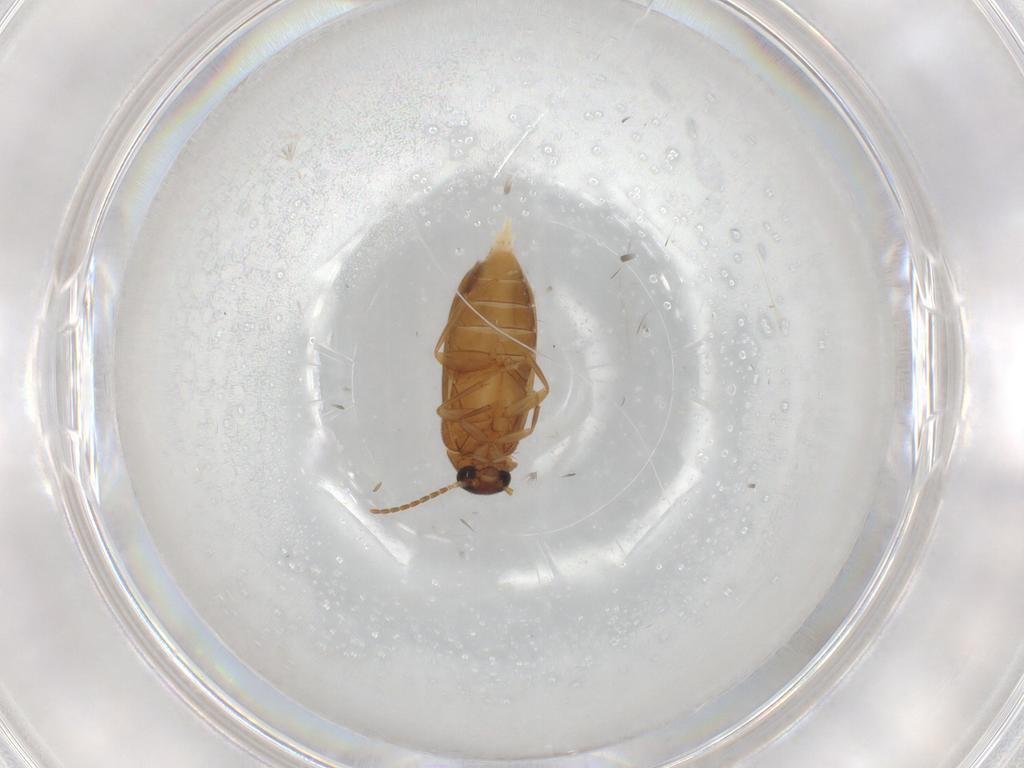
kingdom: Animalia
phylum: Arthropoda
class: Insecta
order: Coleoptera
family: Scraptiidae
